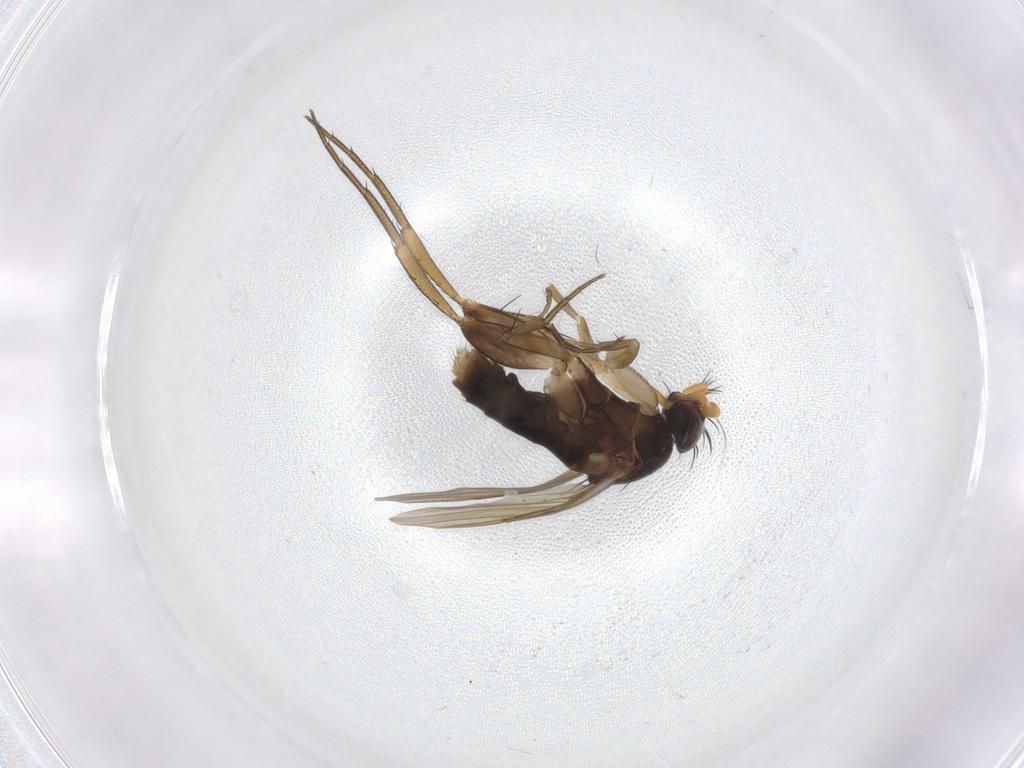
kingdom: Animalia
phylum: Arthropoda
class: Insecta
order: Diptera
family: Phoridae
